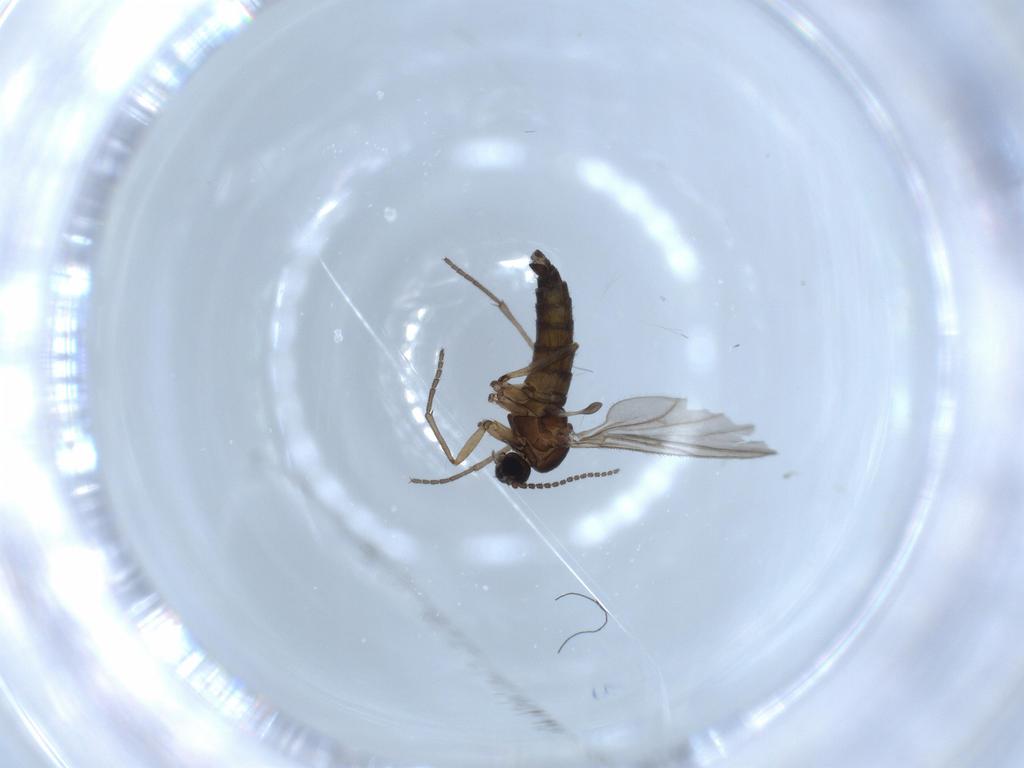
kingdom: Animalia
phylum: Arthropoda
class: Insecta
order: Diptera
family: Sciaridae
